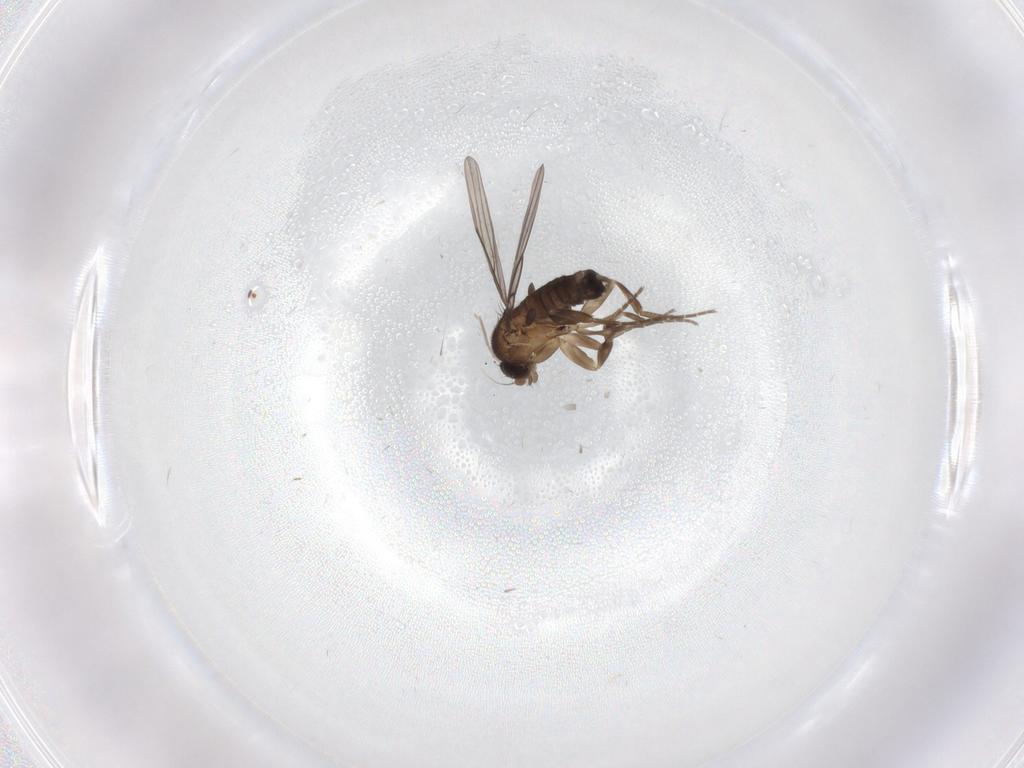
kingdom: Animalia
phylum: Arthropoda
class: Insecta
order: Diptera
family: Chironomidae
